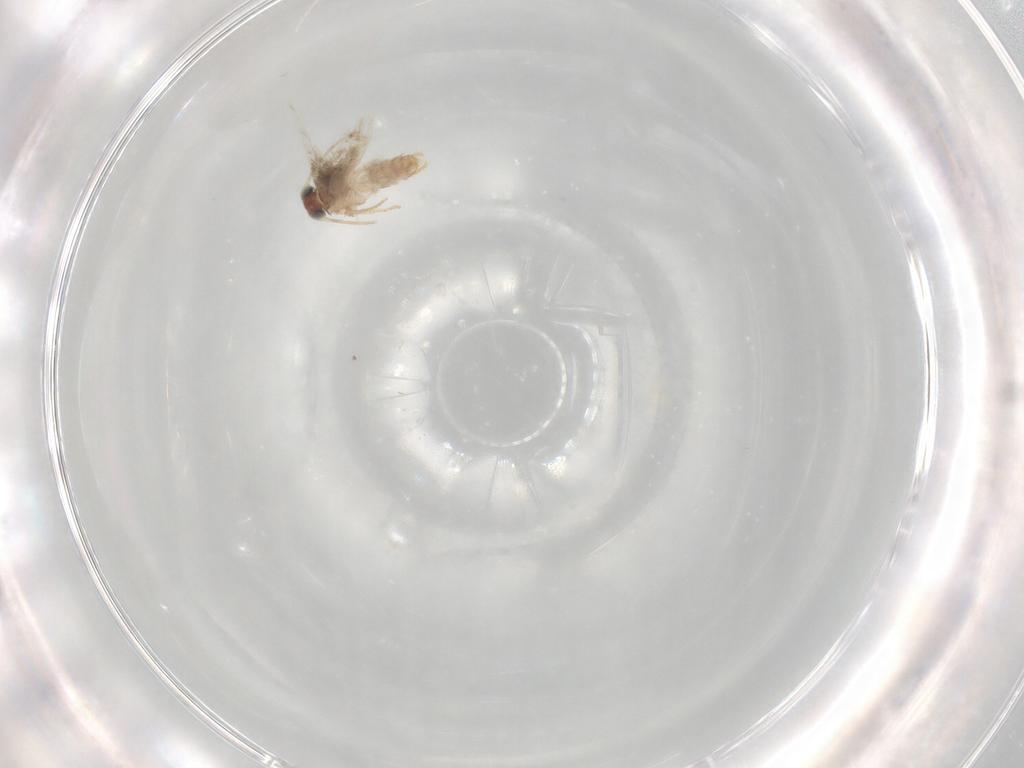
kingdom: Animalia
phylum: Arthropoda
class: Insecta
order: Lepidoptera
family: Nepticulidae
